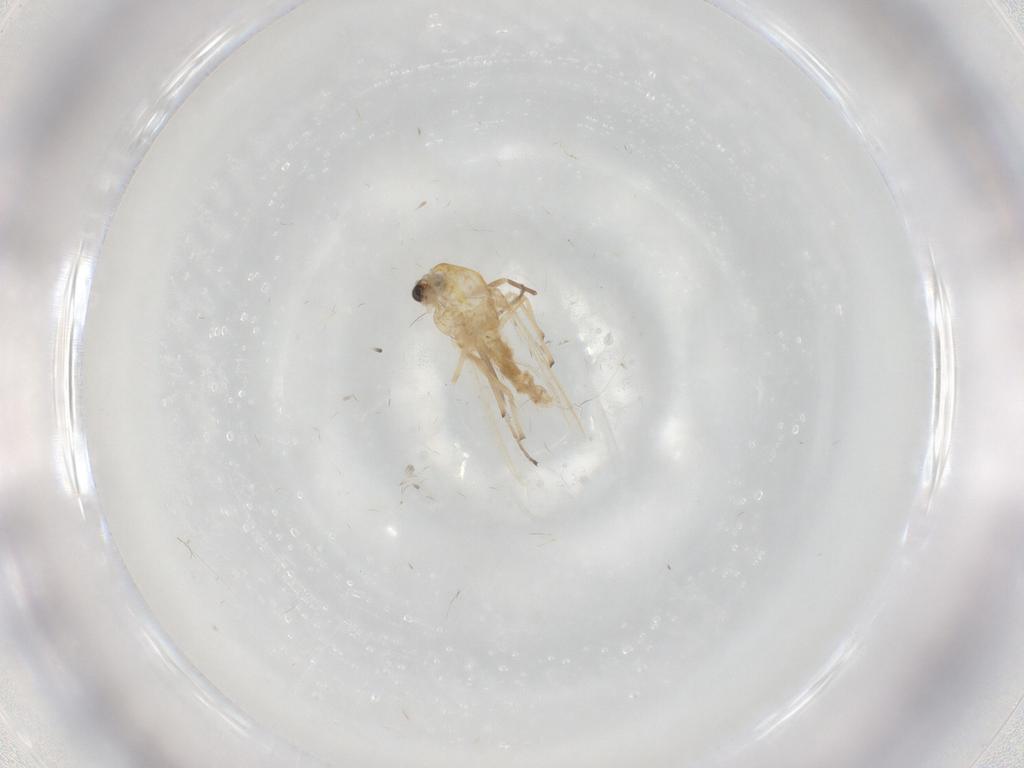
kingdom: Animalia
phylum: Arthropoda
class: Insecta
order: Diptera
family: Chironomidae
